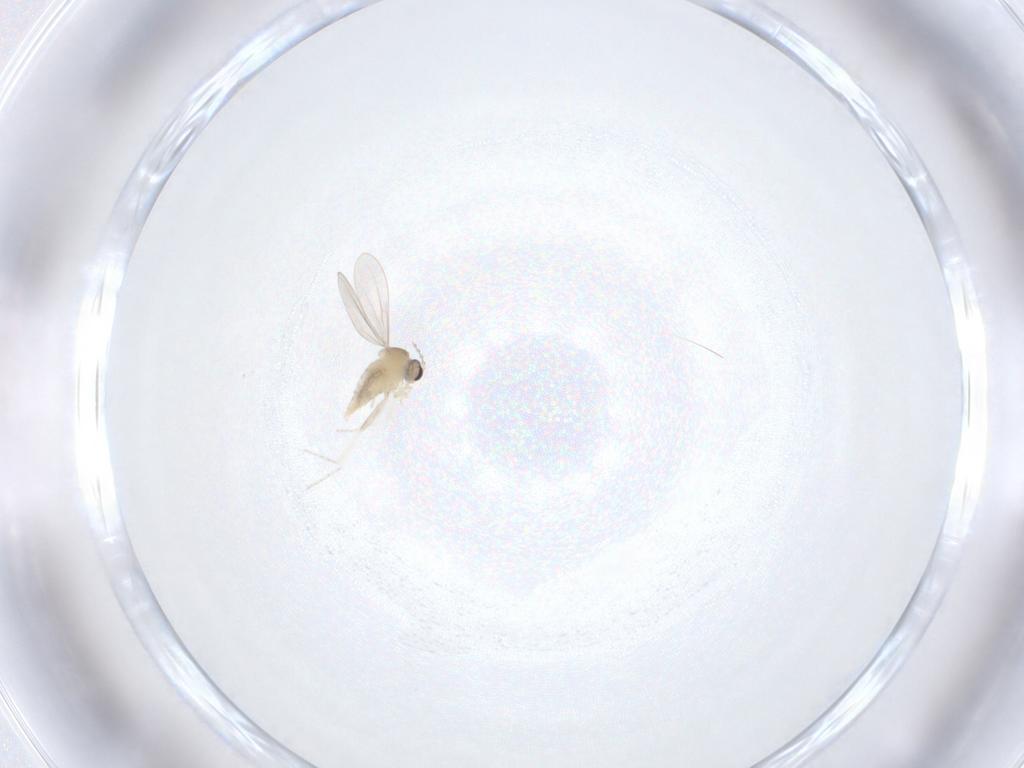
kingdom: Animalia
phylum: Arthropoda
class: Insecta
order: Diptera
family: Cecidomyiidae
